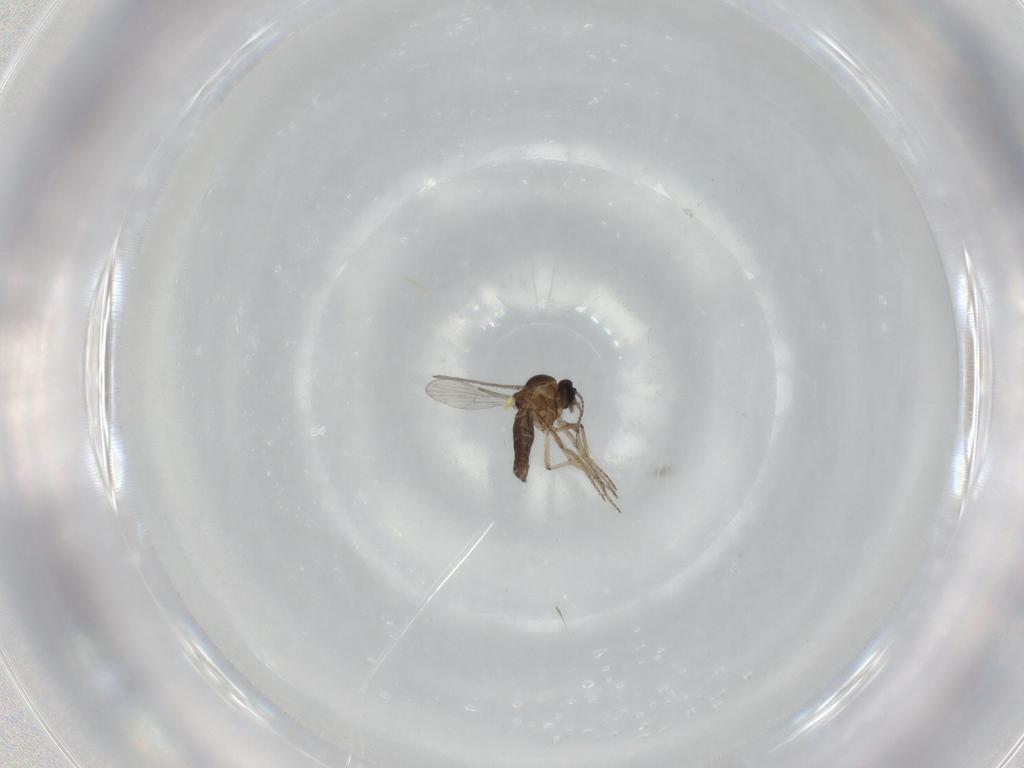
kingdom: Animalia
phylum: Arthropoda
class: Insecta
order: Diptera
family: Ceratopogonidae
